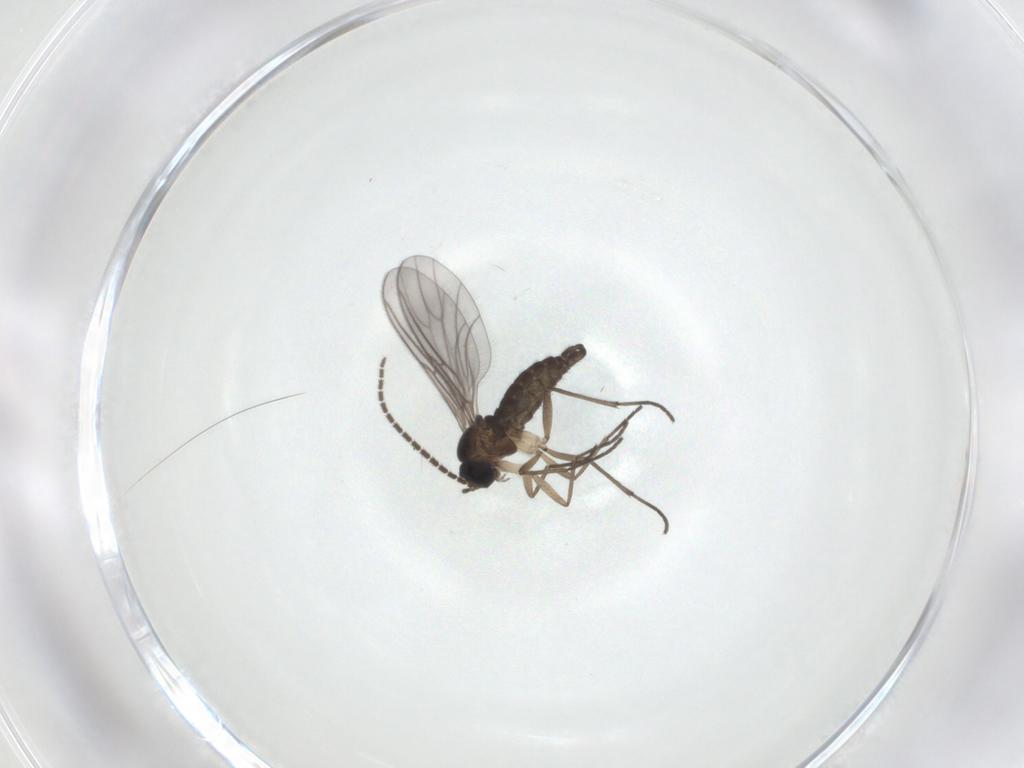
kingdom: Animalia
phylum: Arthropoda
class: Insecta
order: Diptera
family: Sciaridae
